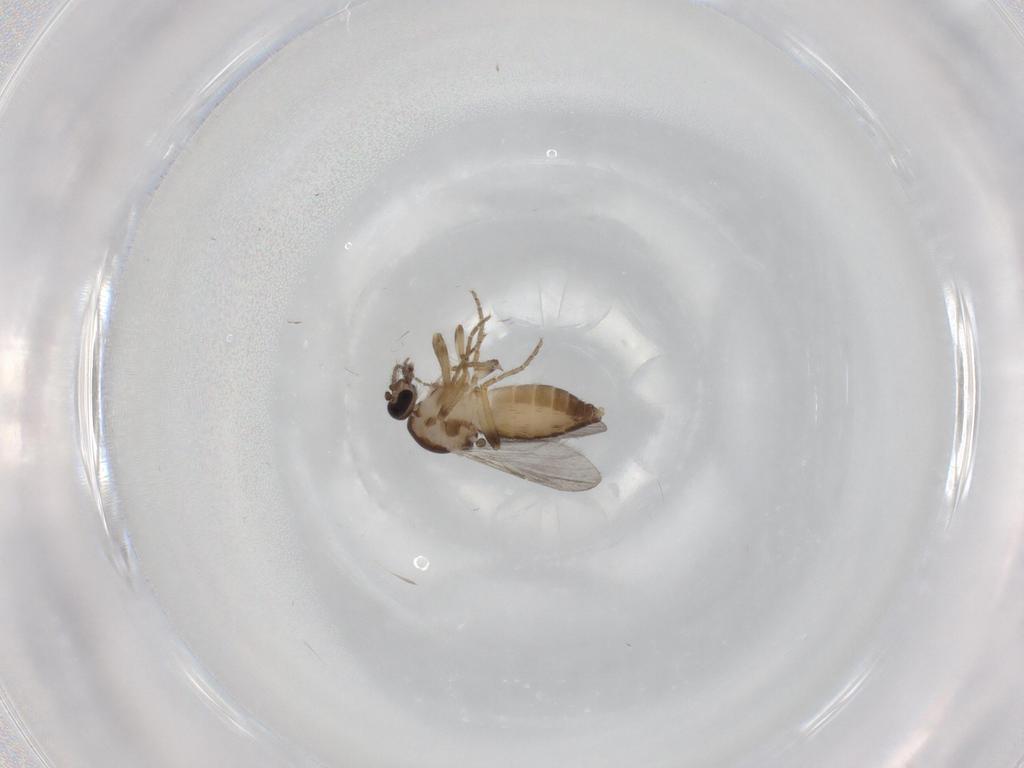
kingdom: Animalia
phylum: Arthropoda
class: Insecta
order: Diptera
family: Ceratopogonidae
